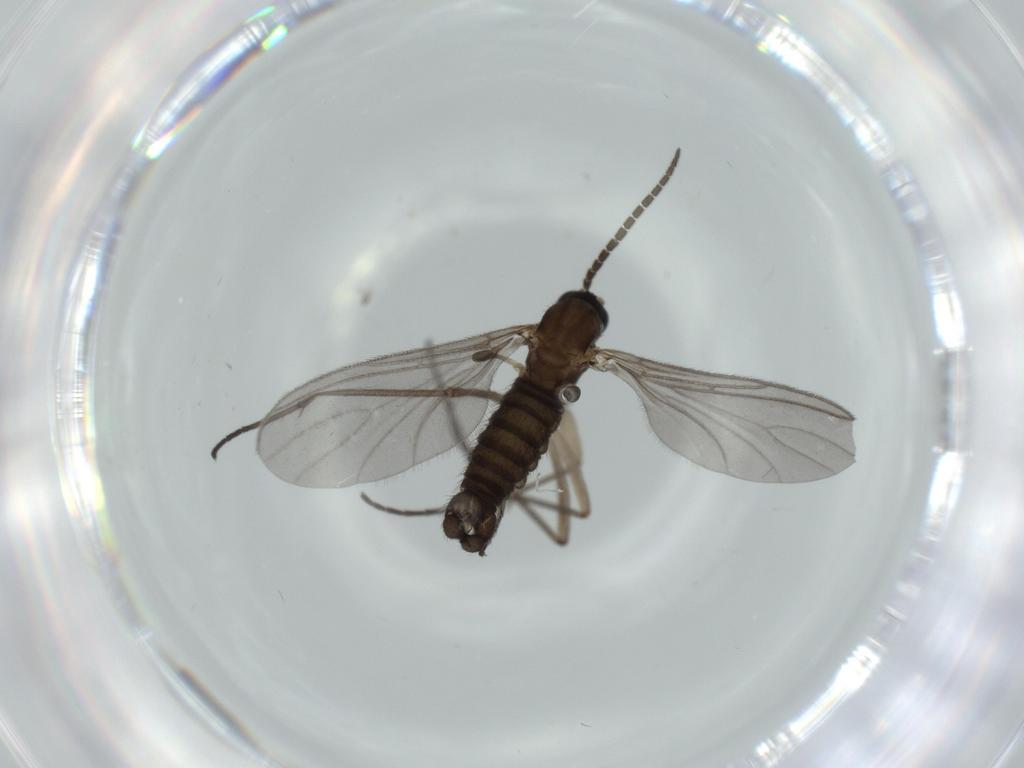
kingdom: Animalia
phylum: Arthropoda
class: Insecta
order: Diptera
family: Sciaridae
